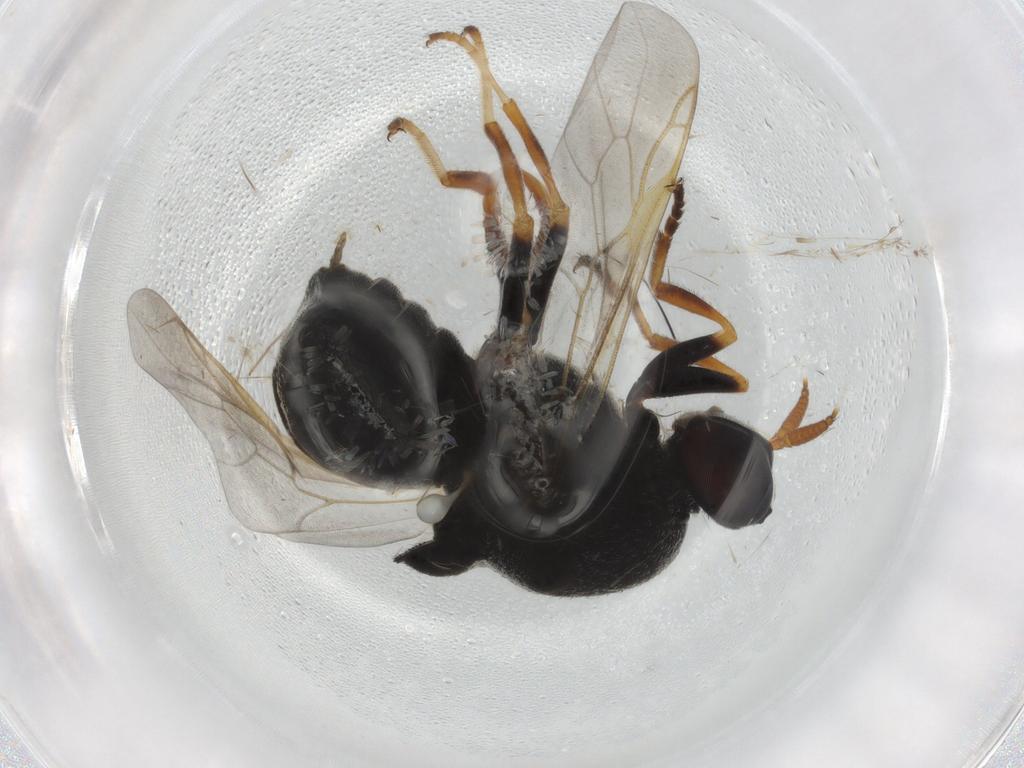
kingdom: Animalia
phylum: Arthropoda
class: Insecta
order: Diptera
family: Stratiomyidae
